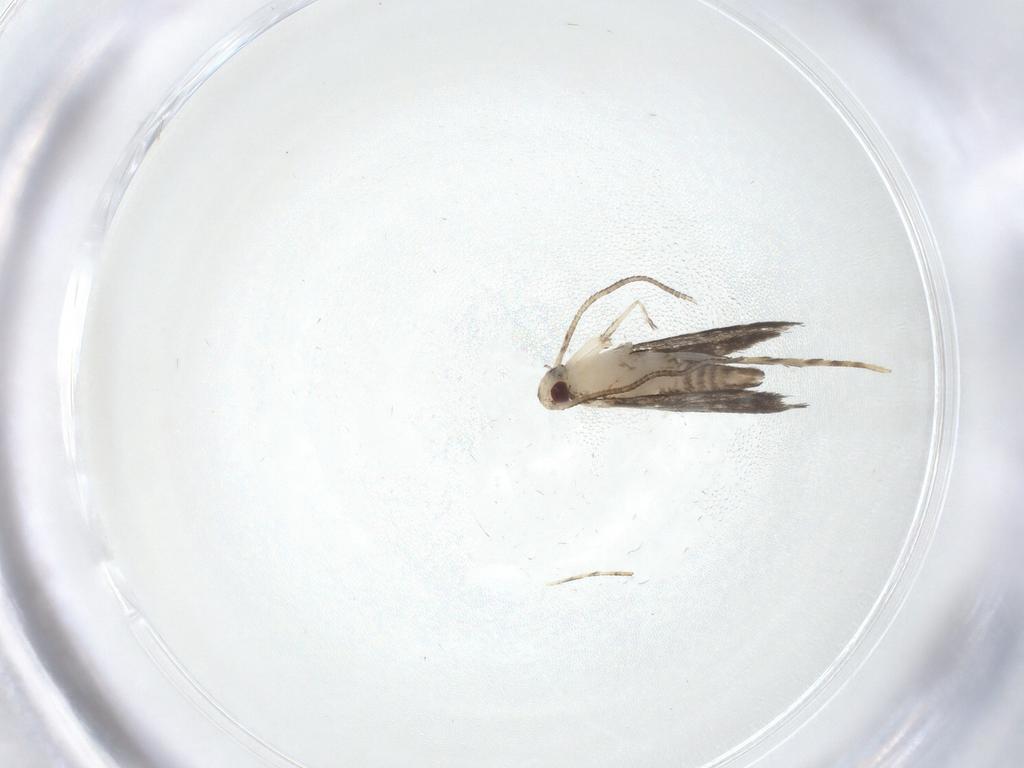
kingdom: Animalia
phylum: Arthropoda
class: Insecta
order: Lepidoptera
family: Gracillariidae
